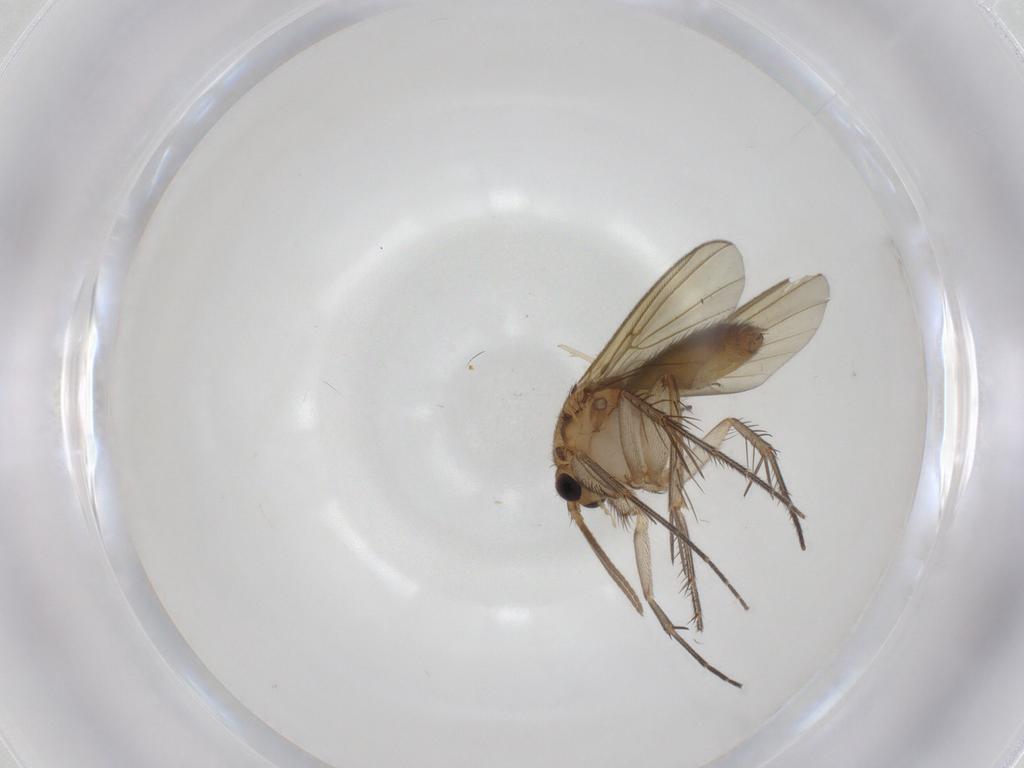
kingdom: Animalia
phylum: Arthropoda
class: Insecta
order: Diptera
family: Mycetophilidae
